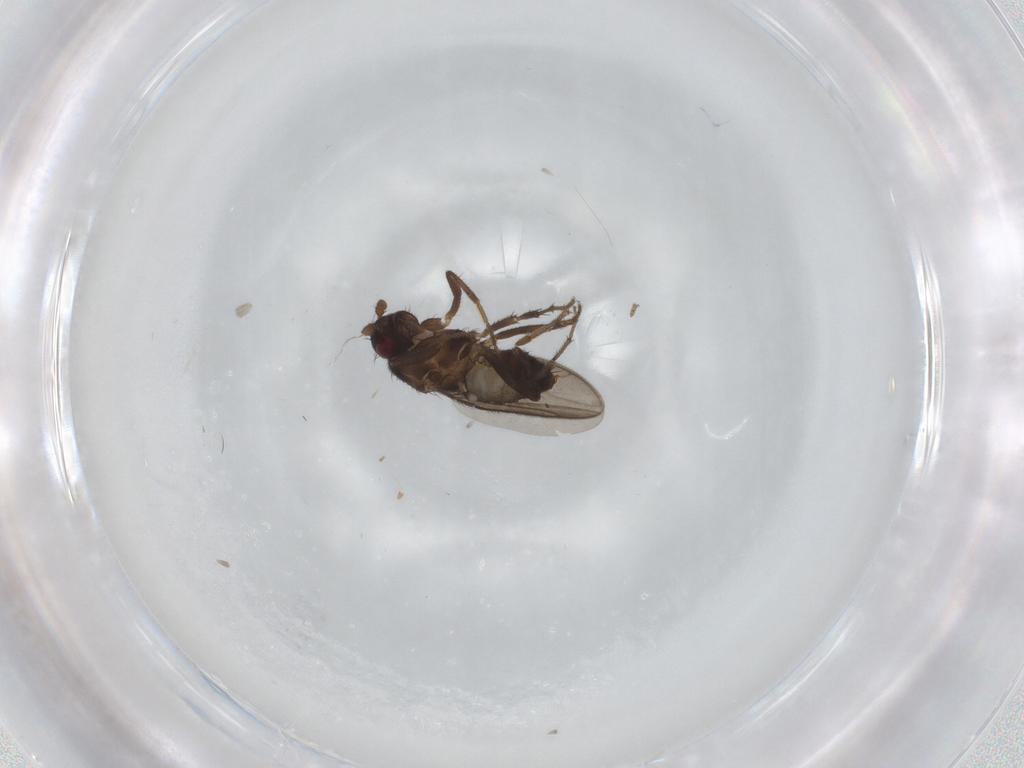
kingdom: Animalia
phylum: Arthropoda
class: Insecta
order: Diptera
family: Sphaeroceridae
